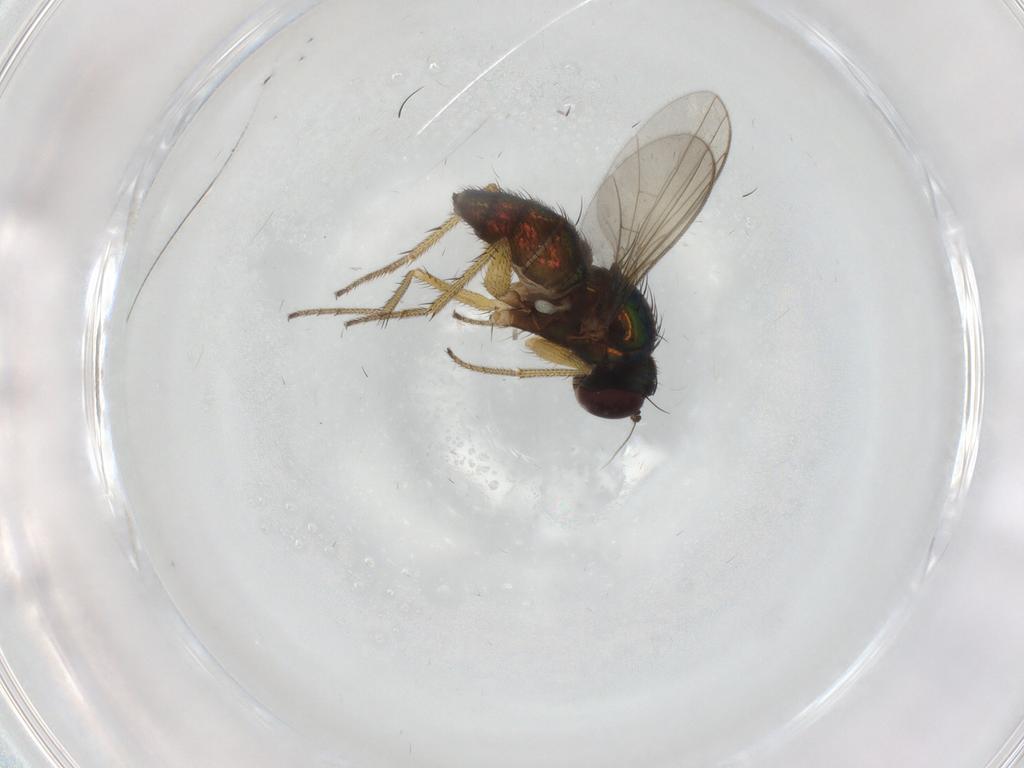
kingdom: Animalia
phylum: Arthropoda
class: Insecta
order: Diptera
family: Dolichopodidae
